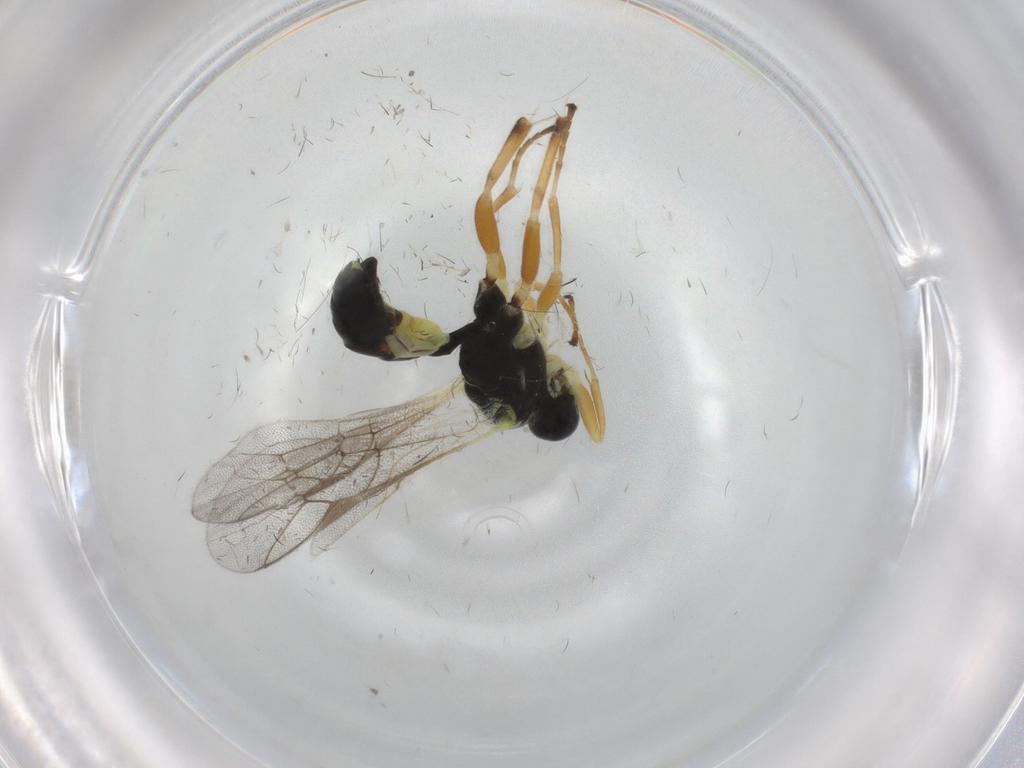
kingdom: Animalia
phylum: Arthropoda
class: Insecta
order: Hymenoptera
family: Ichneumonidae
